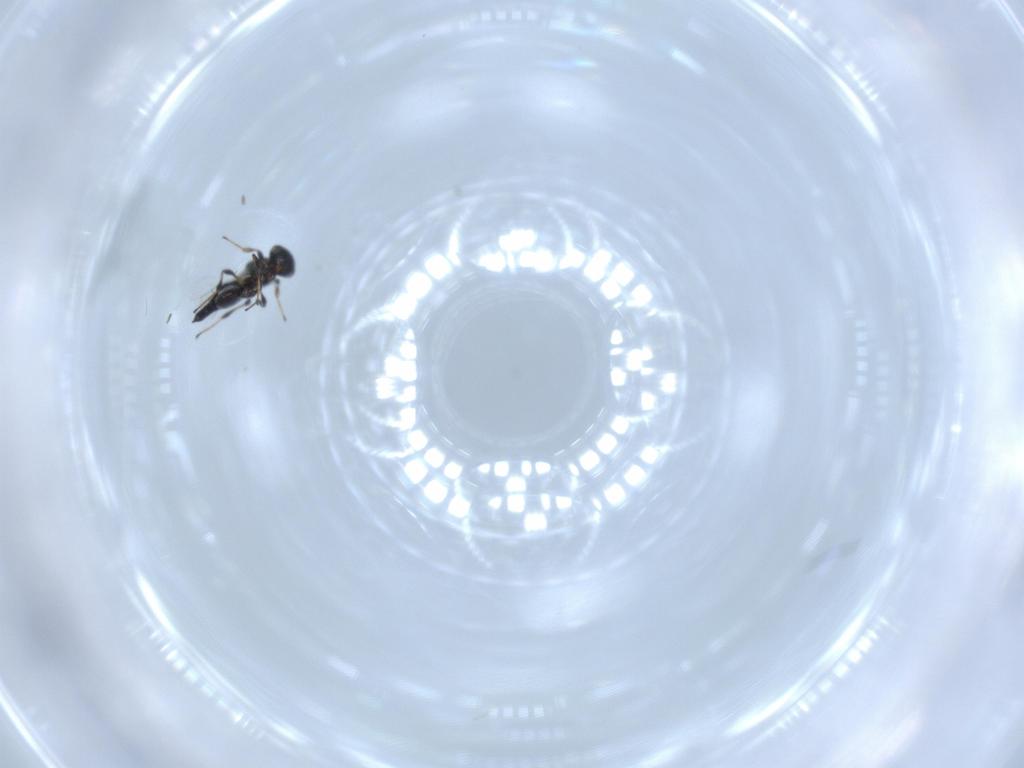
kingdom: Animalia
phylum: Arthropoda
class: Insecta
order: Hymenoptera
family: Platygastridae
